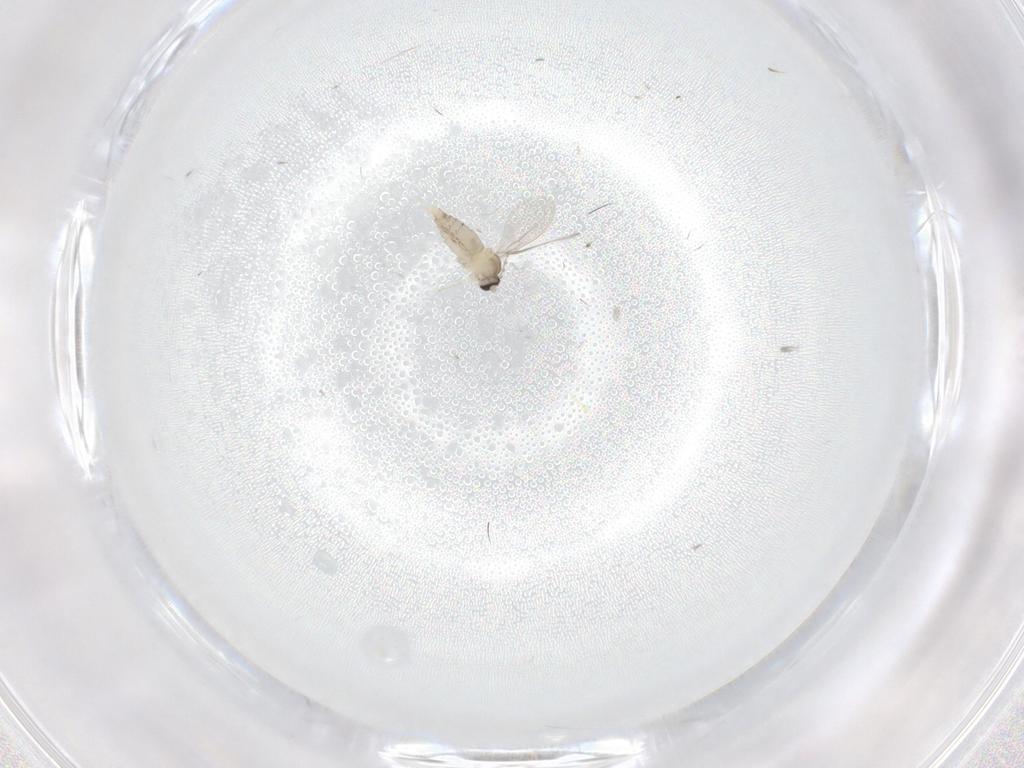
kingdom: Animalia
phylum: Arthropoda
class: Insecta
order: Diptera
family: Cecidomyiidae
